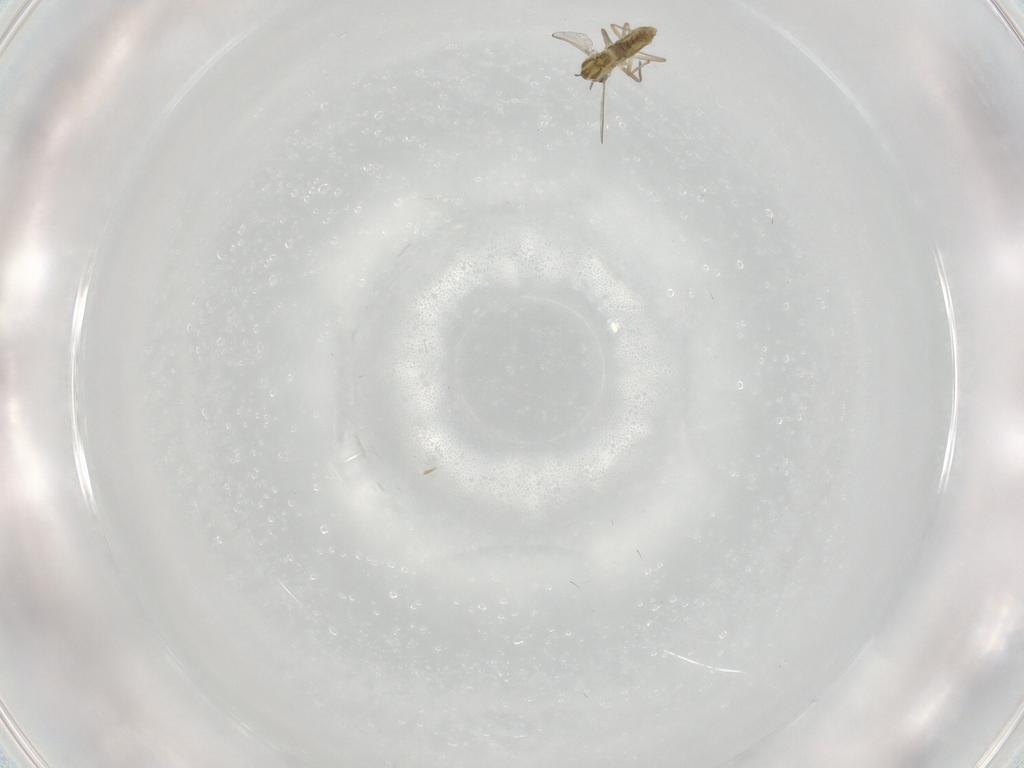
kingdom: Animalia
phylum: Arthropoda
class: Insecta
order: Diptera
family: Chironomidae
